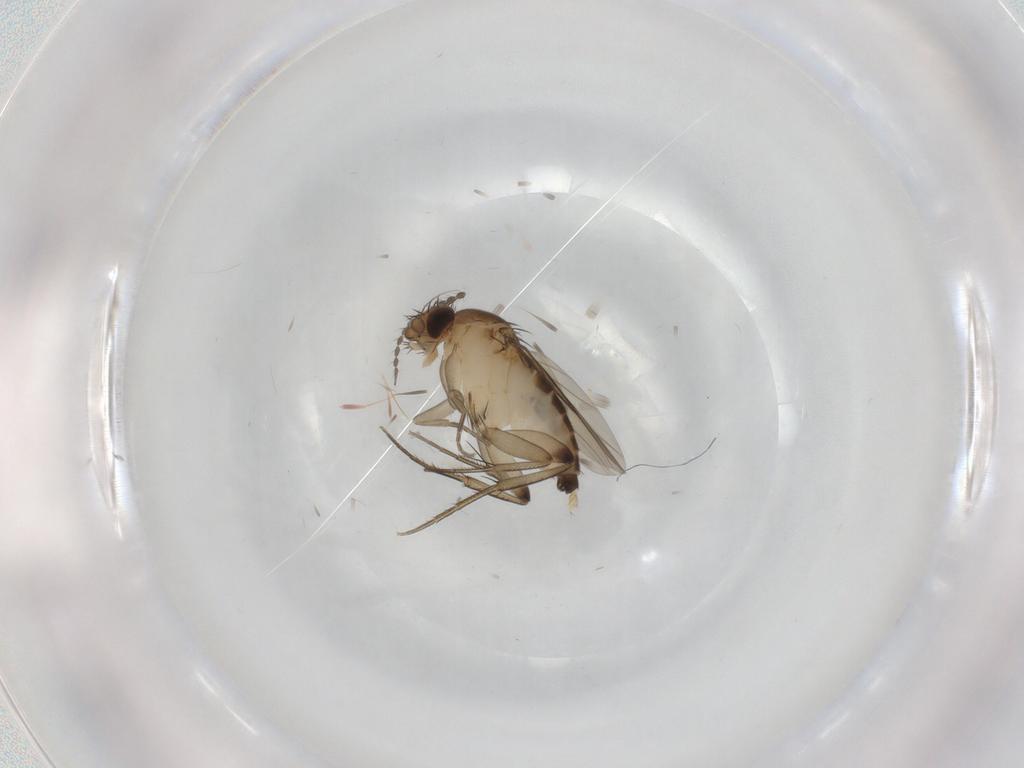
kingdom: Animalia
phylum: Arthropoda
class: Insecta
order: Diptera
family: Limoniidae
